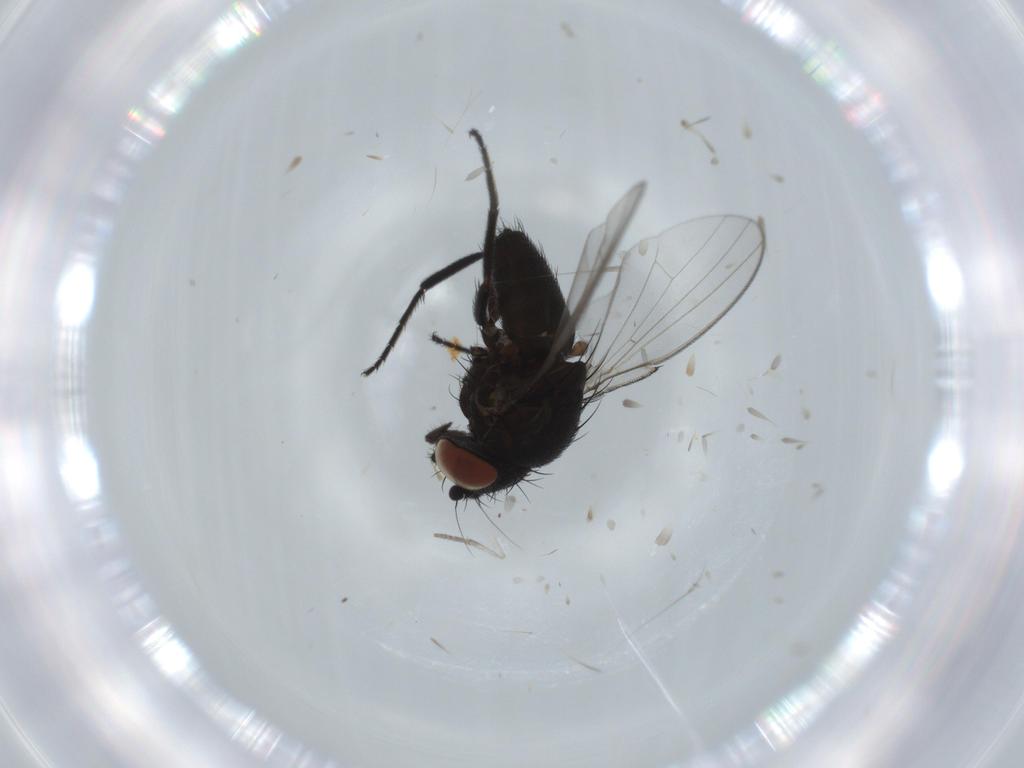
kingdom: Animalia
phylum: Arthropoda
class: Insecta
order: Diptera
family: Milichiidae
